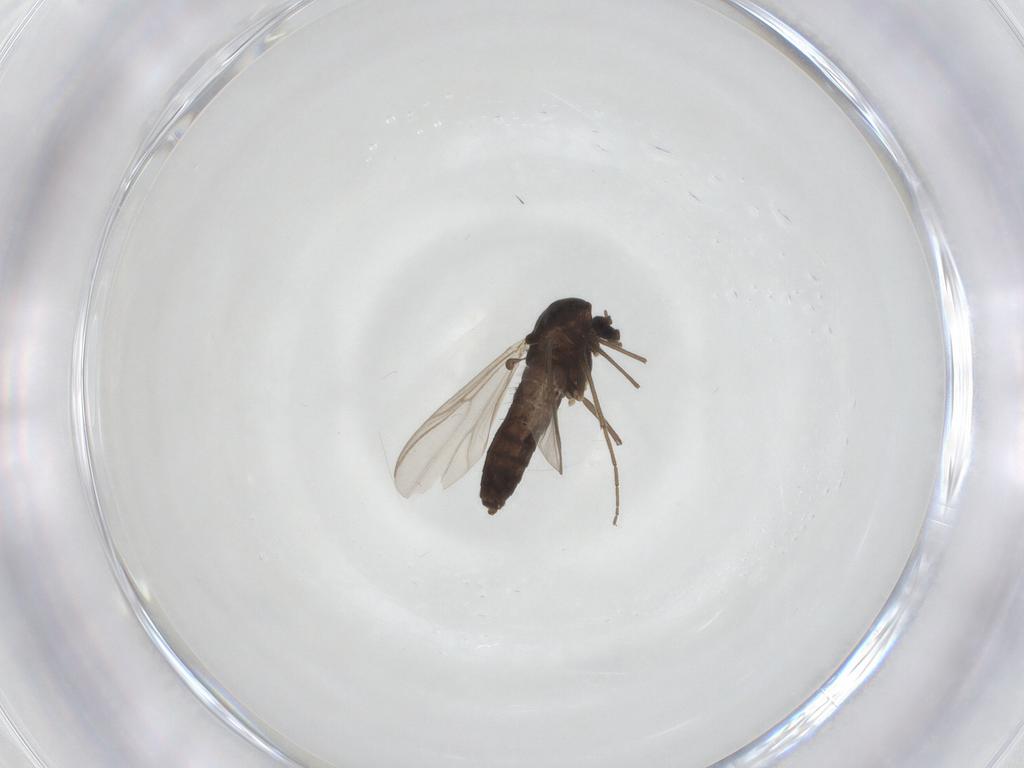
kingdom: Animalia
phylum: Arthropoda
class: Insecta
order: Diptera
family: Chironomidae
